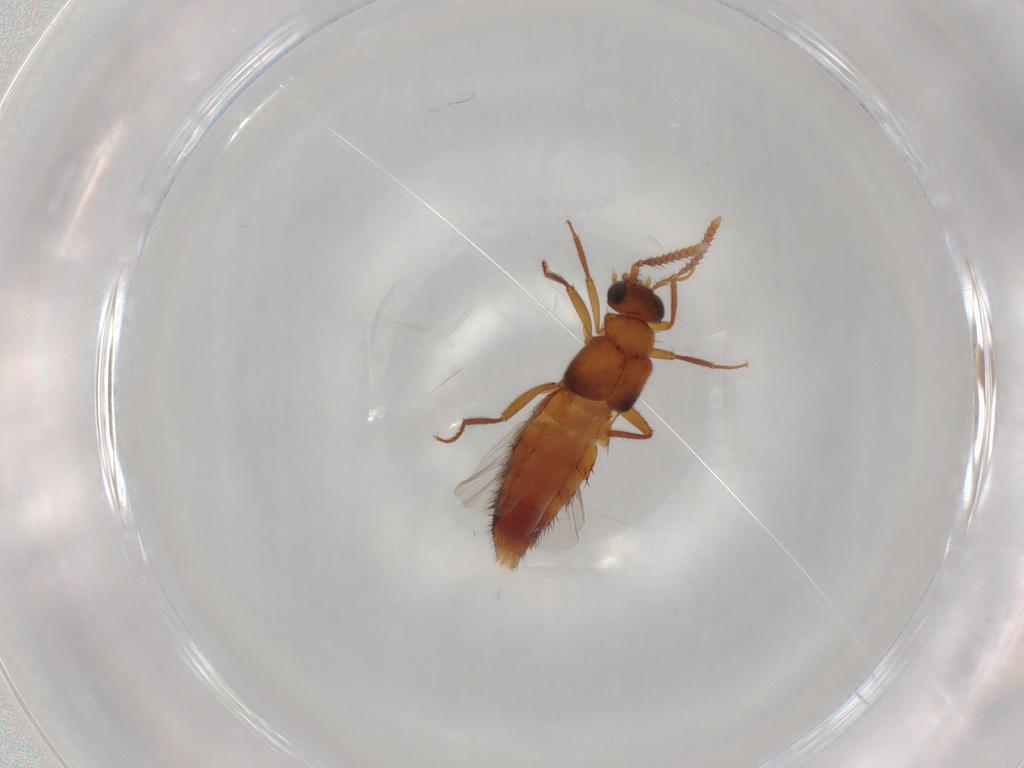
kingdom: Animalia
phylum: Arthropoda
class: Insecta
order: Coleoptera
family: Staphylinidae
